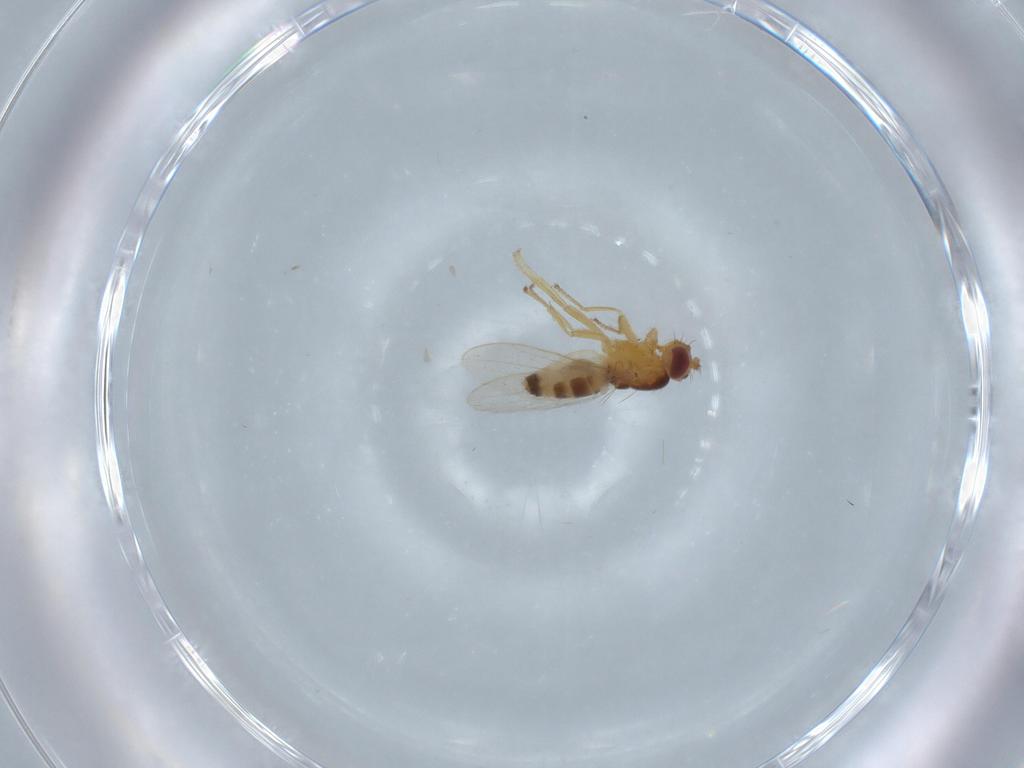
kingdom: Animalia
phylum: Arthropoda
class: Insecta
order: Diptera
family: Periscelididae
